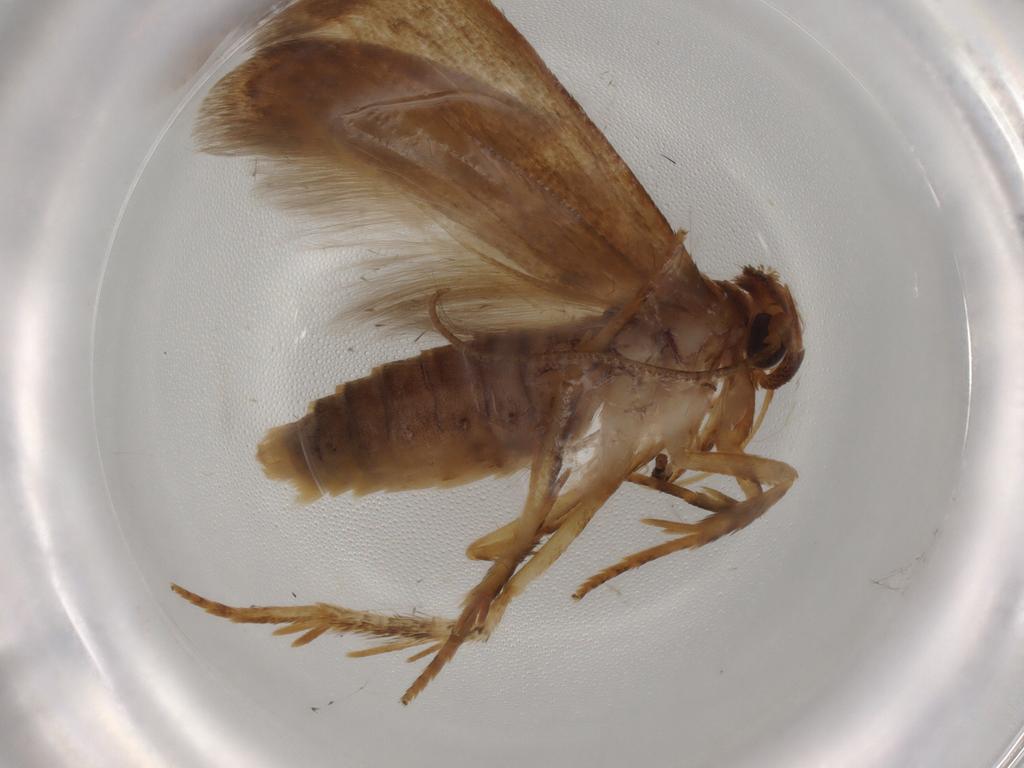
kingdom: Animalia
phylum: Arthropoda
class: Insecta
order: Lepidoptera
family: Blastobasidae
